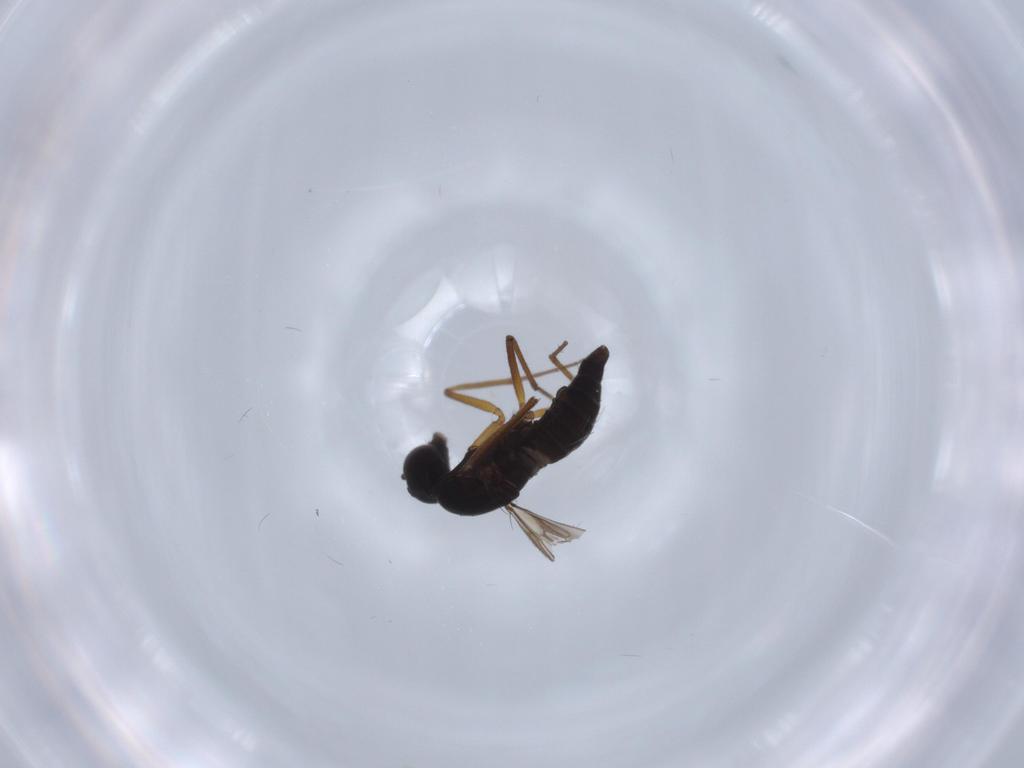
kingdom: Animalia
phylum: Arthropoda
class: Insecta
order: Diptera
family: Empididae
